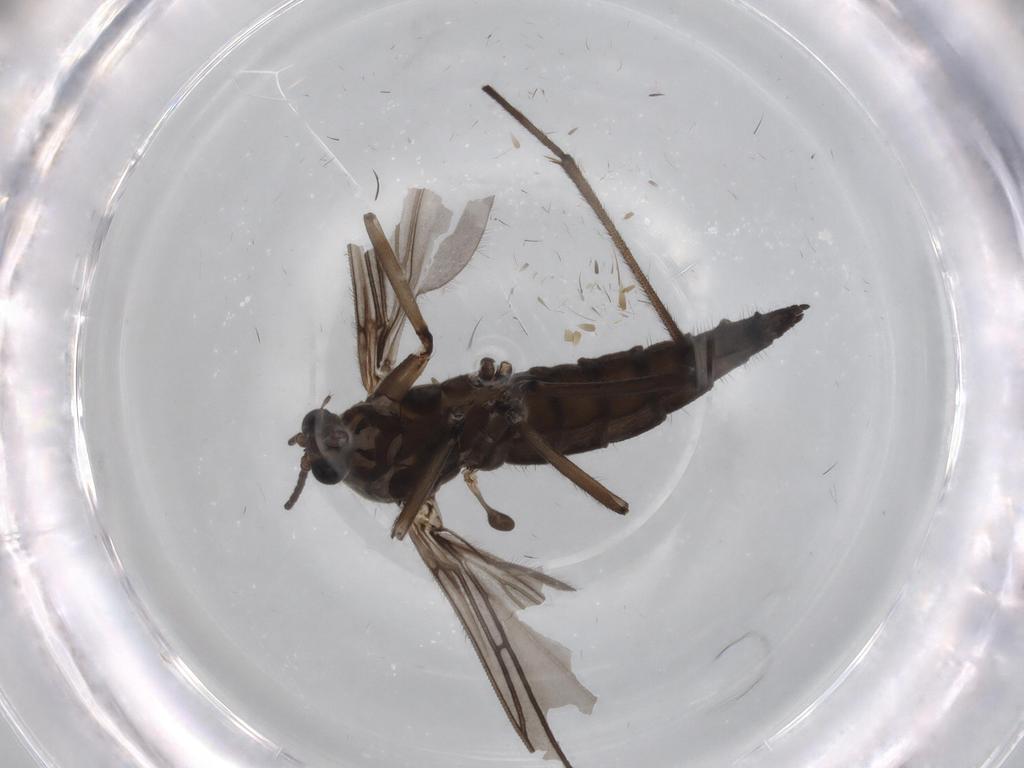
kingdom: Animalia
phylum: Arthropoda
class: Insecta
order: Diptera
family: Sciaridae
